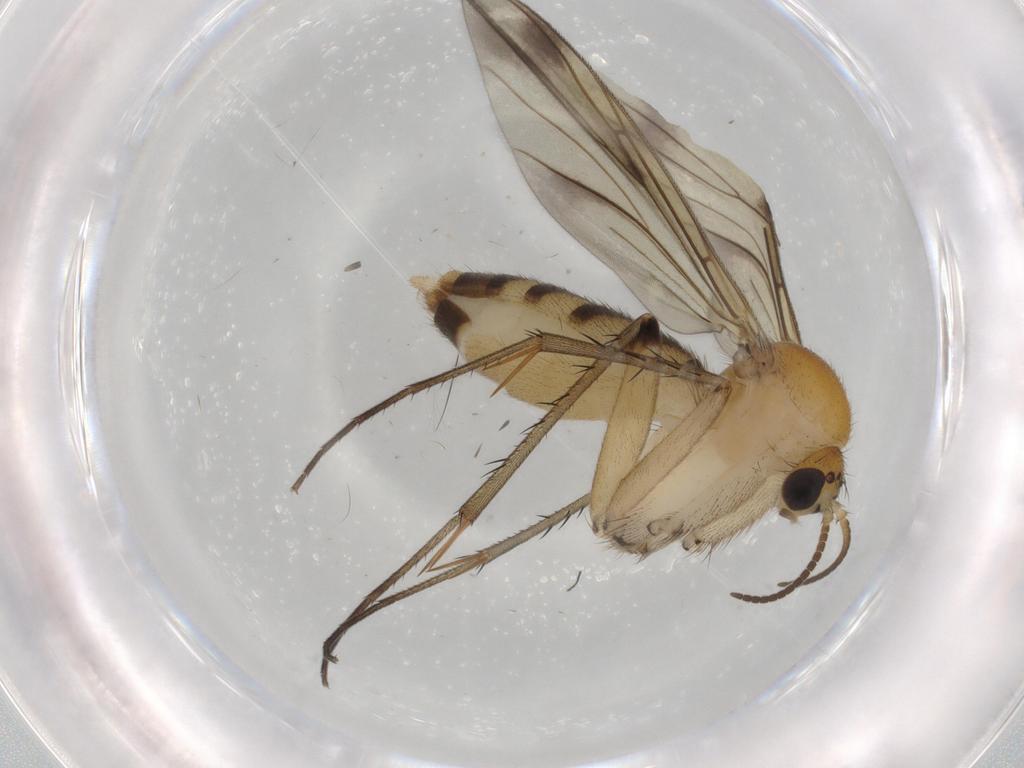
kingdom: Animalia
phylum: Arthropoda
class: Insecta
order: Diptera
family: Mycetophilidae
